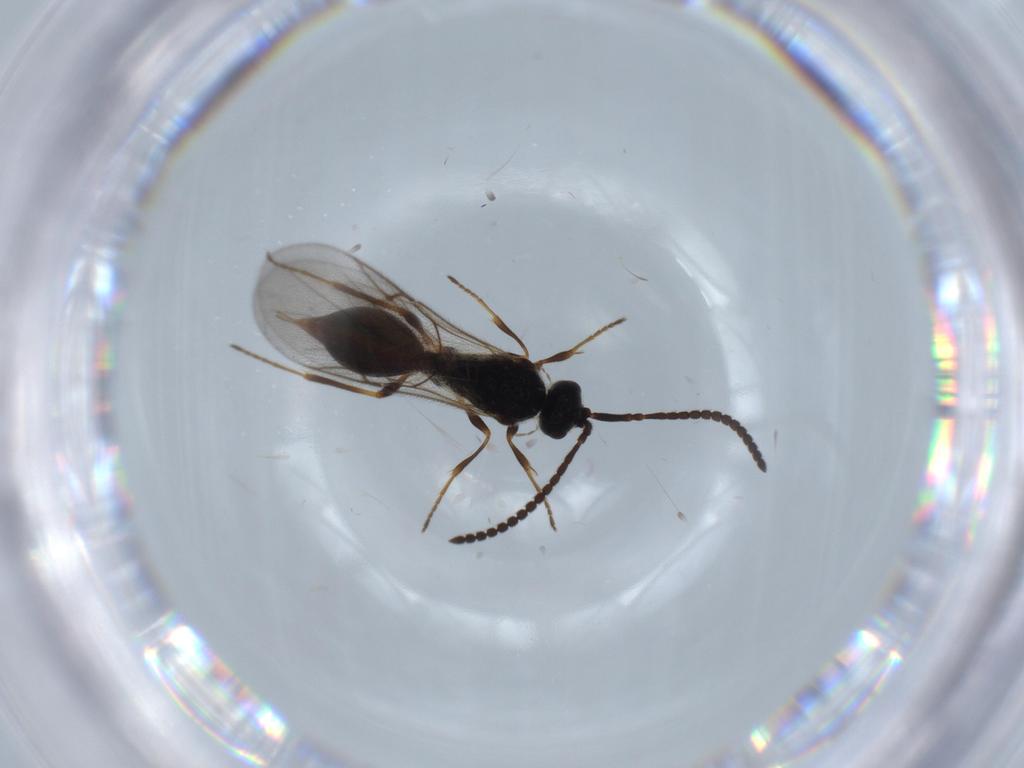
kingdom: Animalia
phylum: Arthropoda
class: Insecta
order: Hymenoptera
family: Diapriidae
